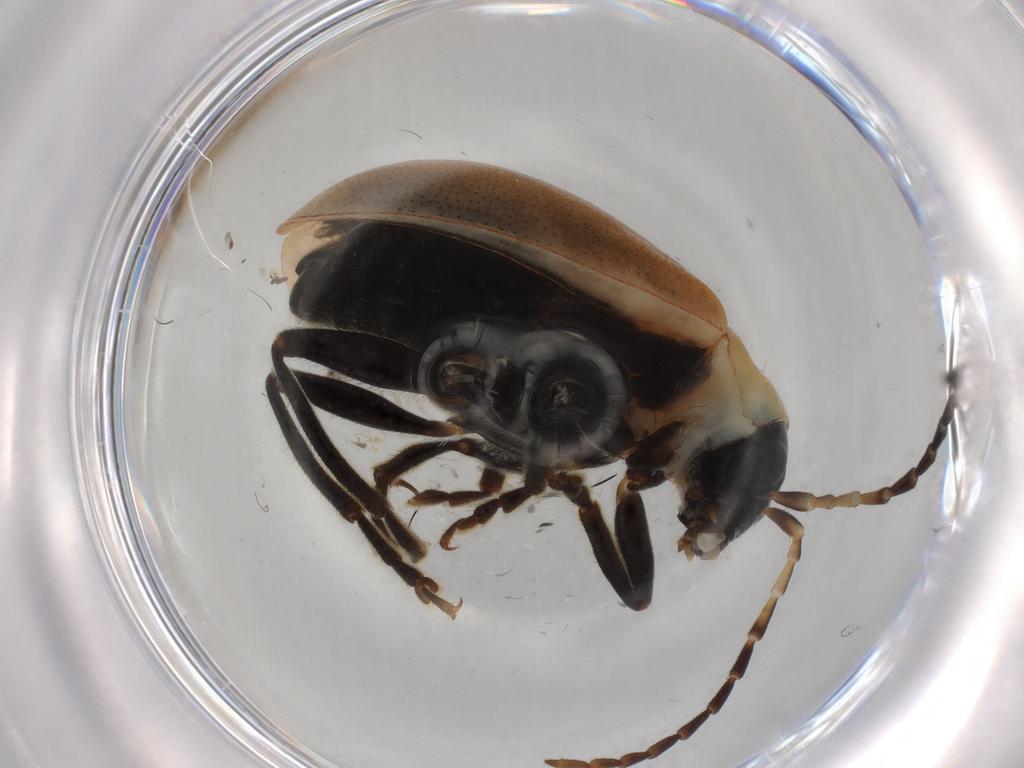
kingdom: Animalia
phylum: Arthropoda
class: Insecta
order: Coleoptera
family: Chrysomelidae
